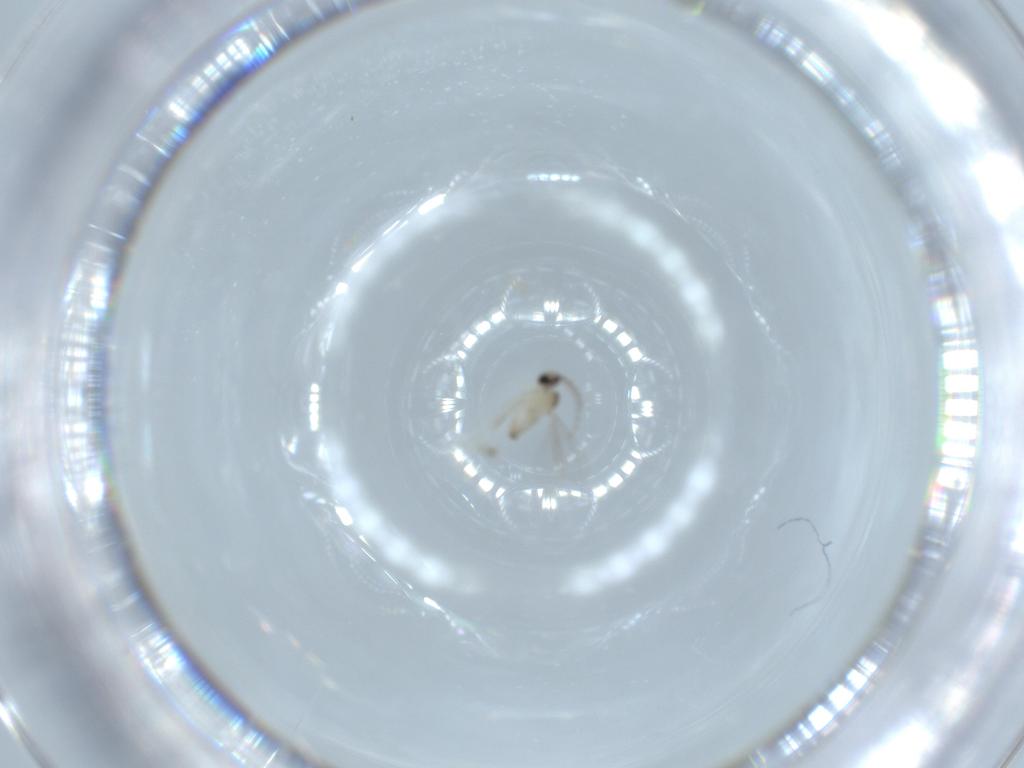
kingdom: Animalia
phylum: Arthropoda
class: Insecta
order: Diptera
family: Cecidomyiidae
